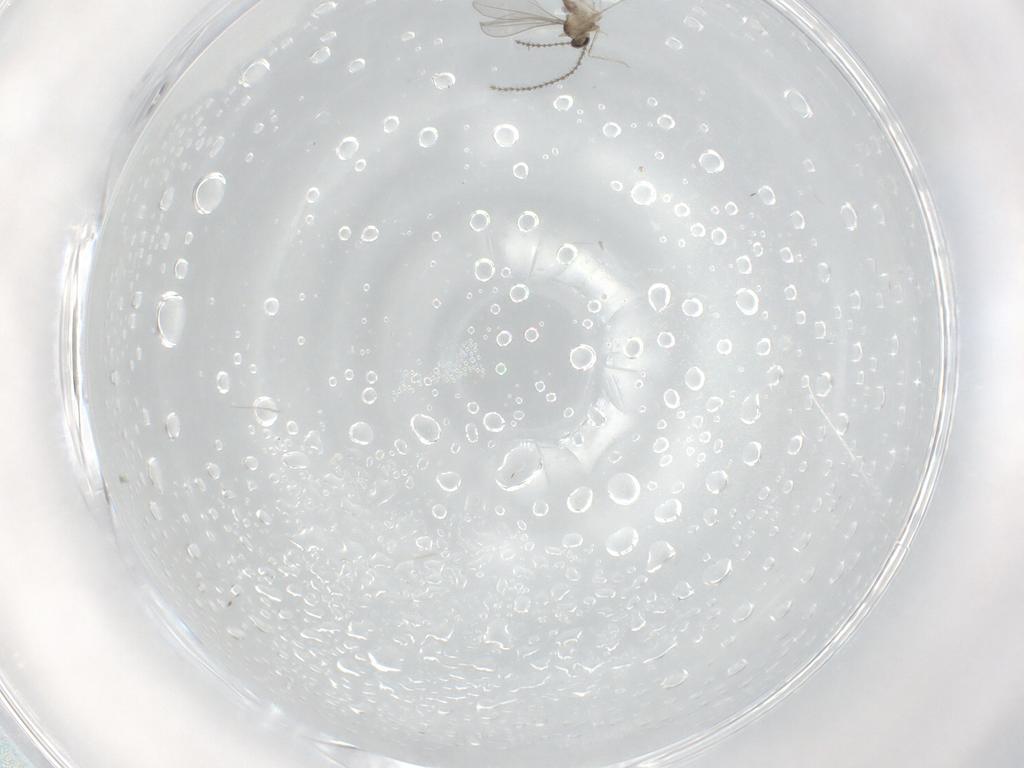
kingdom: Animalia
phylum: Arthropoda
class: Insecta
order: Diptera
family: Cecidomyiidae
